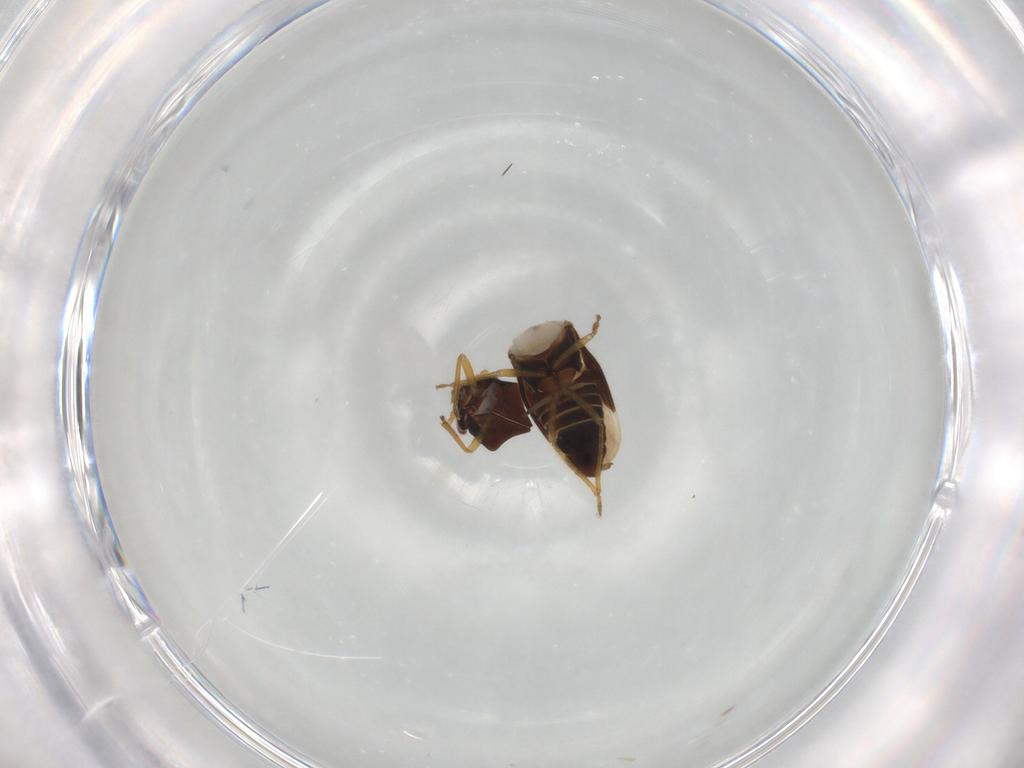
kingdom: Animalia
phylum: Arthropoda
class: Insecta
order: Hemiptera
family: Schizopteridae
